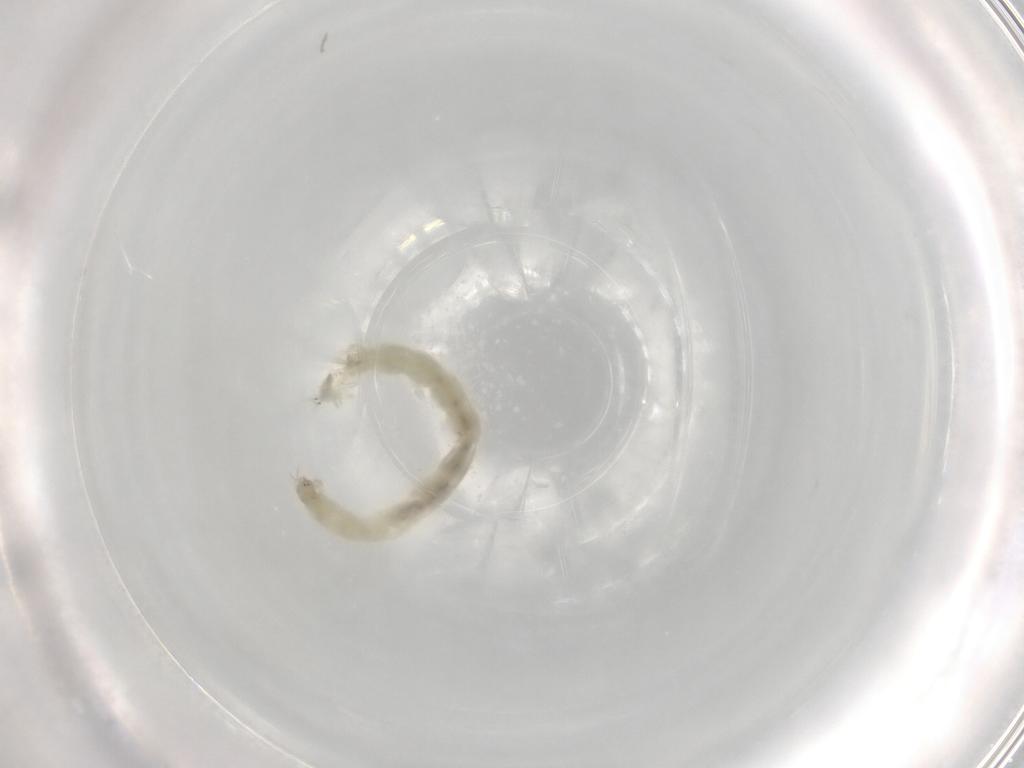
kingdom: Animalia
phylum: Arthropoda
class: Insecta
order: Diptera
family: Chironomidae
